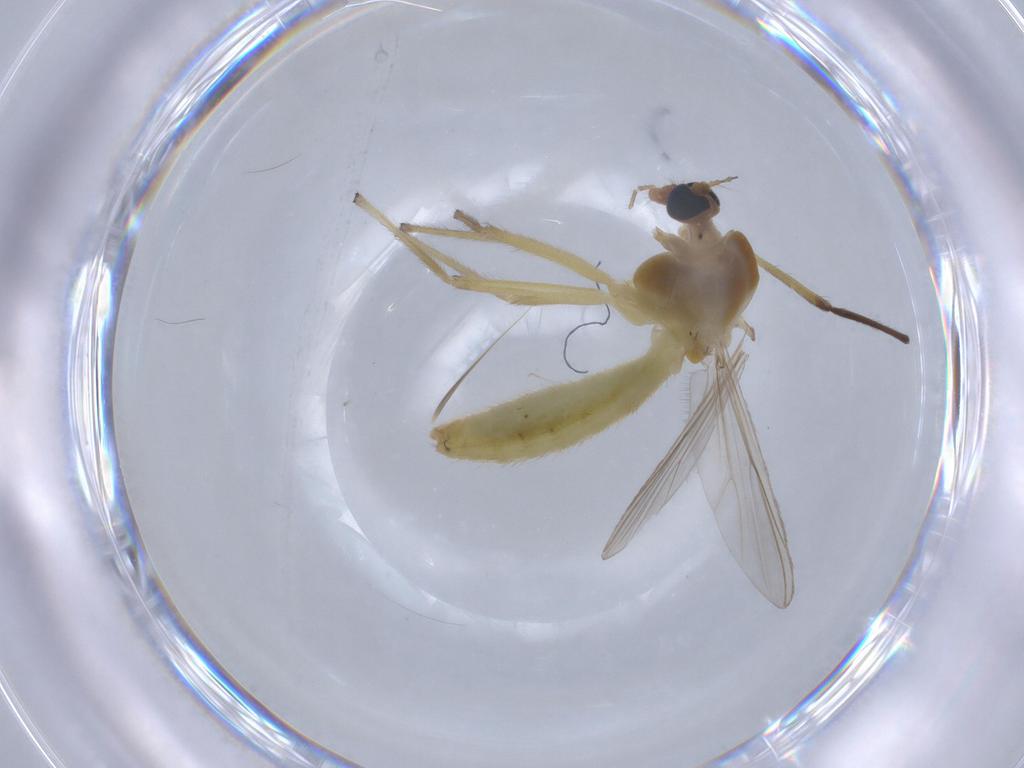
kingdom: Animalia
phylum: Arthropoda
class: Insecta
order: Diptera
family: Chironomidae
